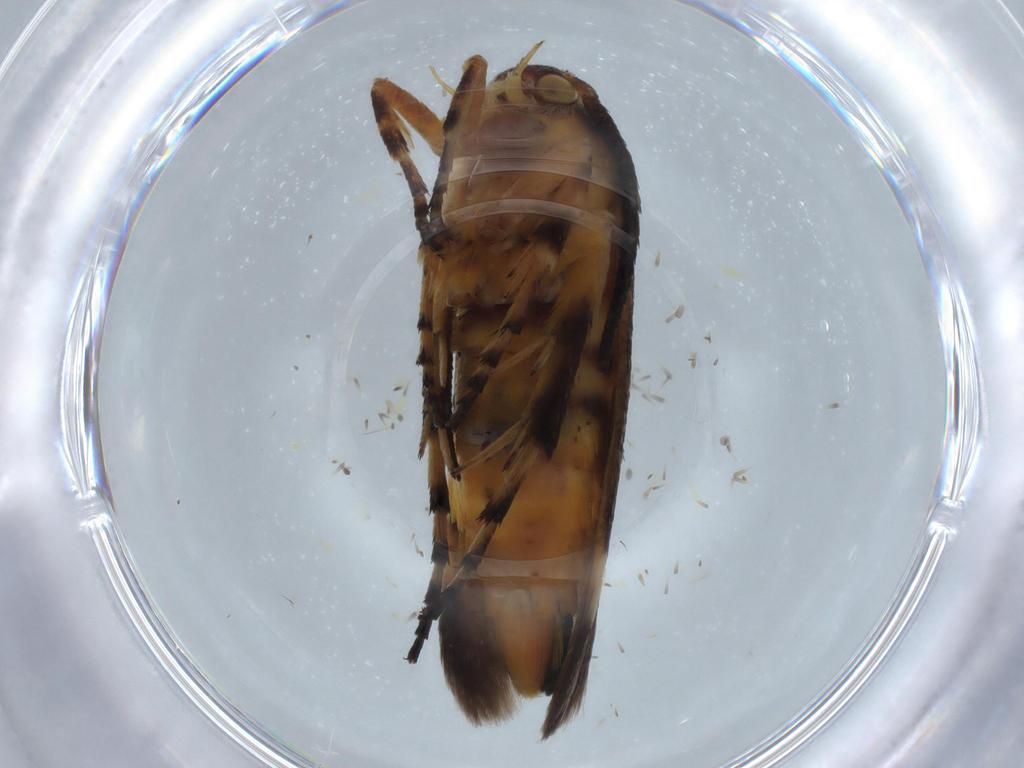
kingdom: Animalia
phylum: Arthropoda
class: Insecta
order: Lepidoptera
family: Scythrididae
